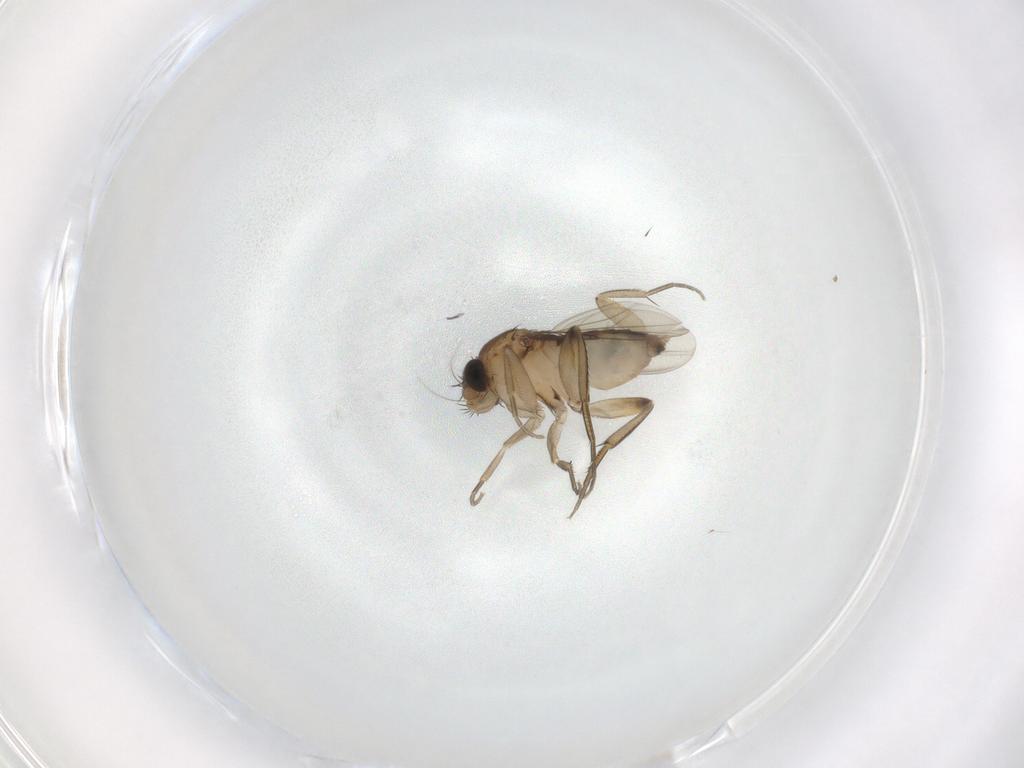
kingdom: Animalia
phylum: Arthropoda
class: Insecta
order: Diptera
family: Phoridae
